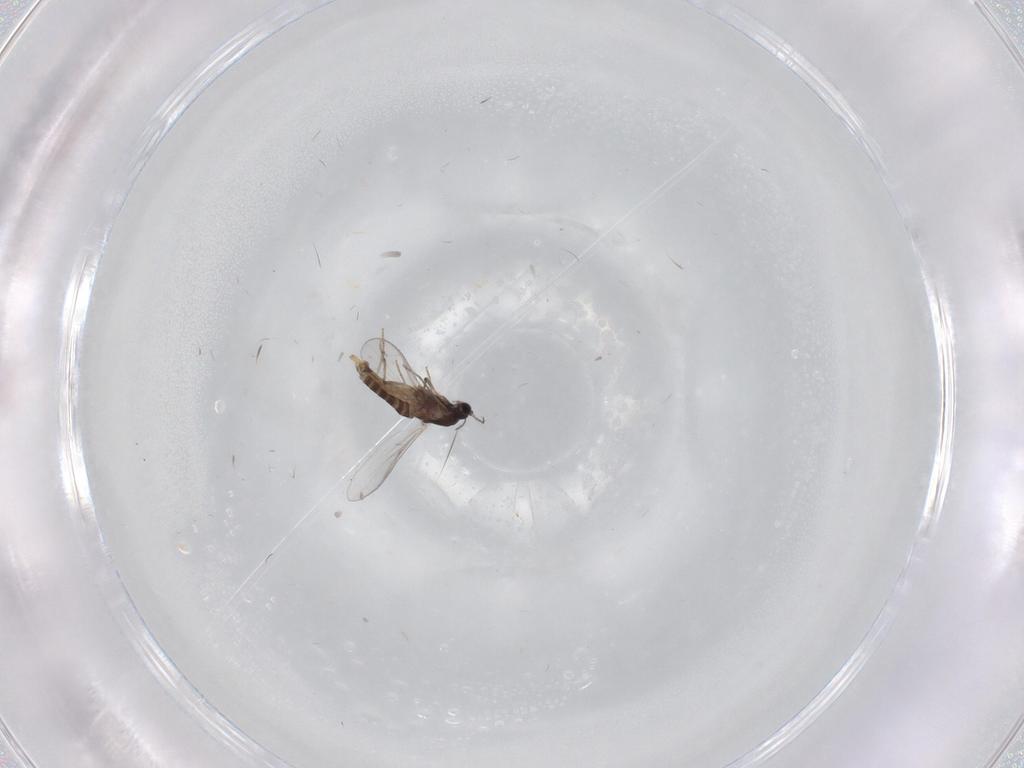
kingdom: Animalia
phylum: Arthropoda
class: Insecta
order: Diptera
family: Chironomidae
